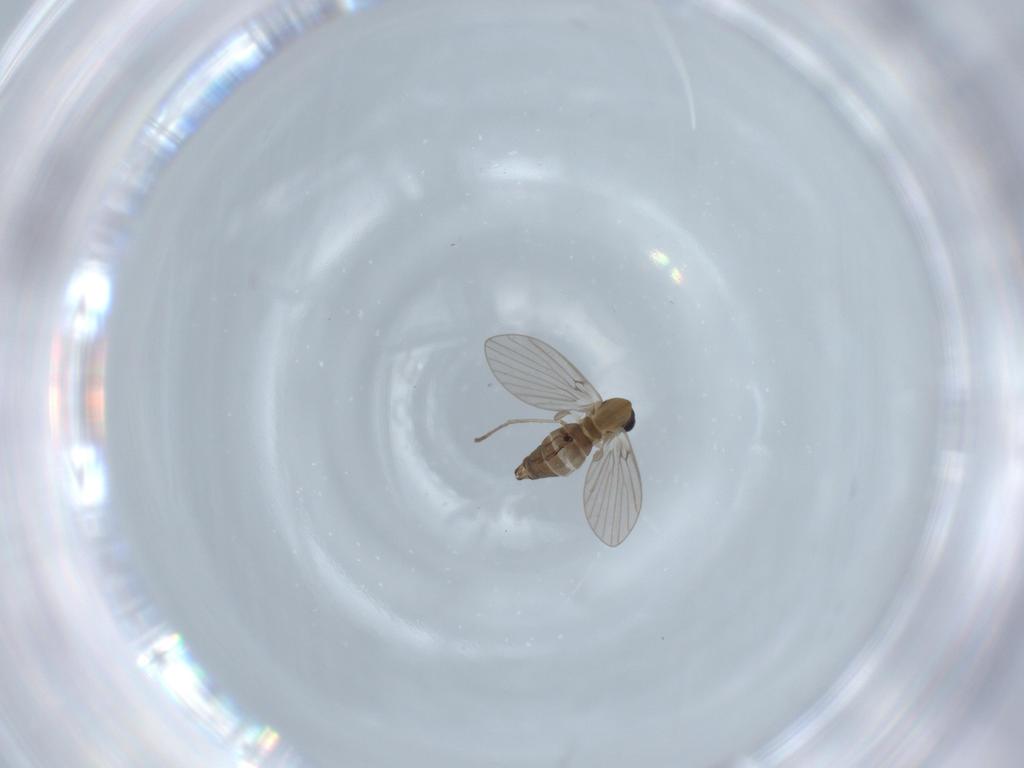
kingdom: Animalia
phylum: Arthropoda
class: Insecta
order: Diptera
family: Psychodidae
